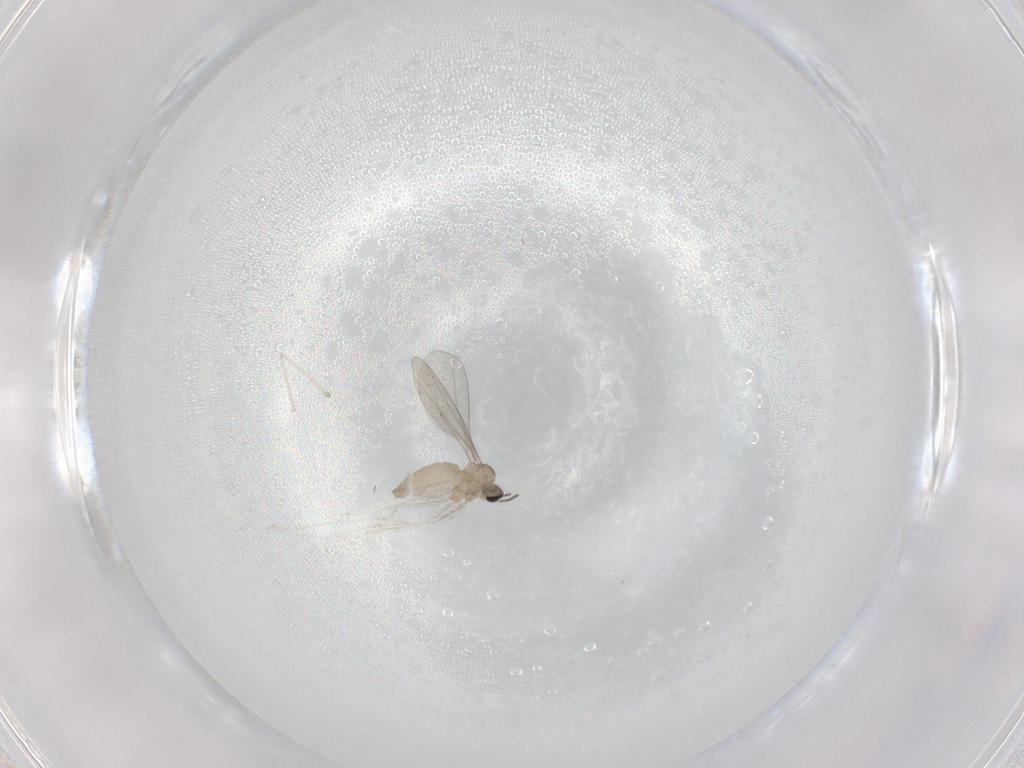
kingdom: Animalia
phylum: Arthropoda
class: Insecta
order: Diptera
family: Cecidomyiidae
